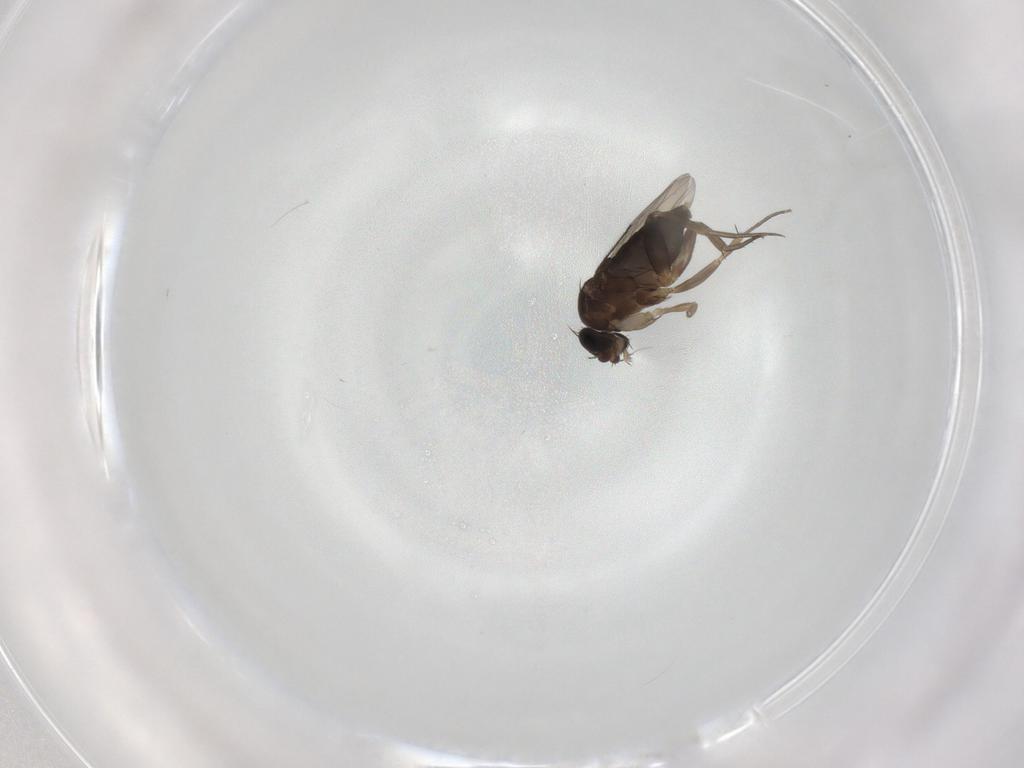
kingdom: Animalia
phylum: Arthropoda
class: Insecta
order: Diptera
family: Phoridae
